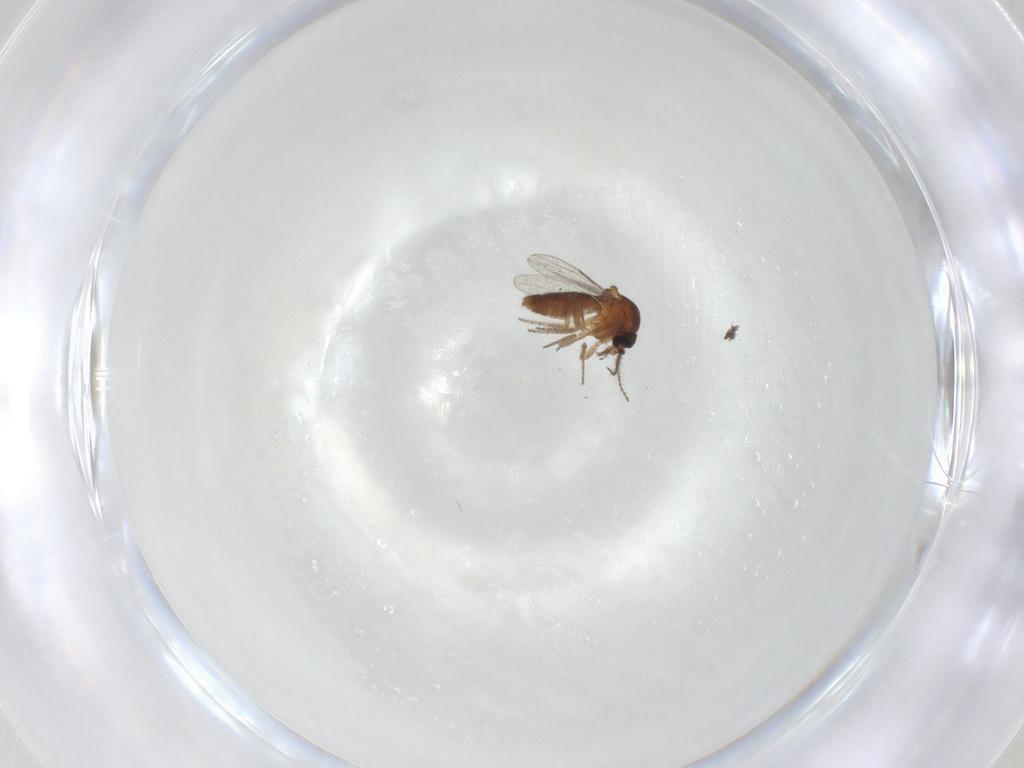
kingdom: Animalia
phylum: Arthropoda
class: Insecta
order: Diptera
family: Ceratopogonidae
